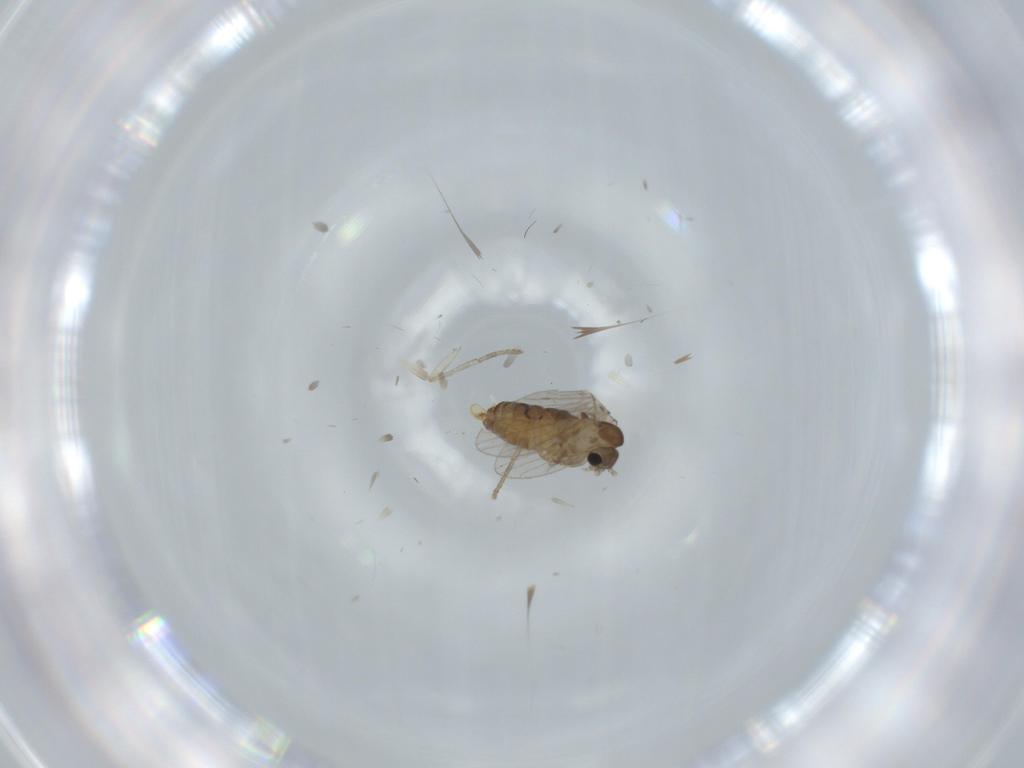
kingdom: Animalia
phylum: Arthropoda
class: Insecta
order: Diptera
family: Psychodidae
